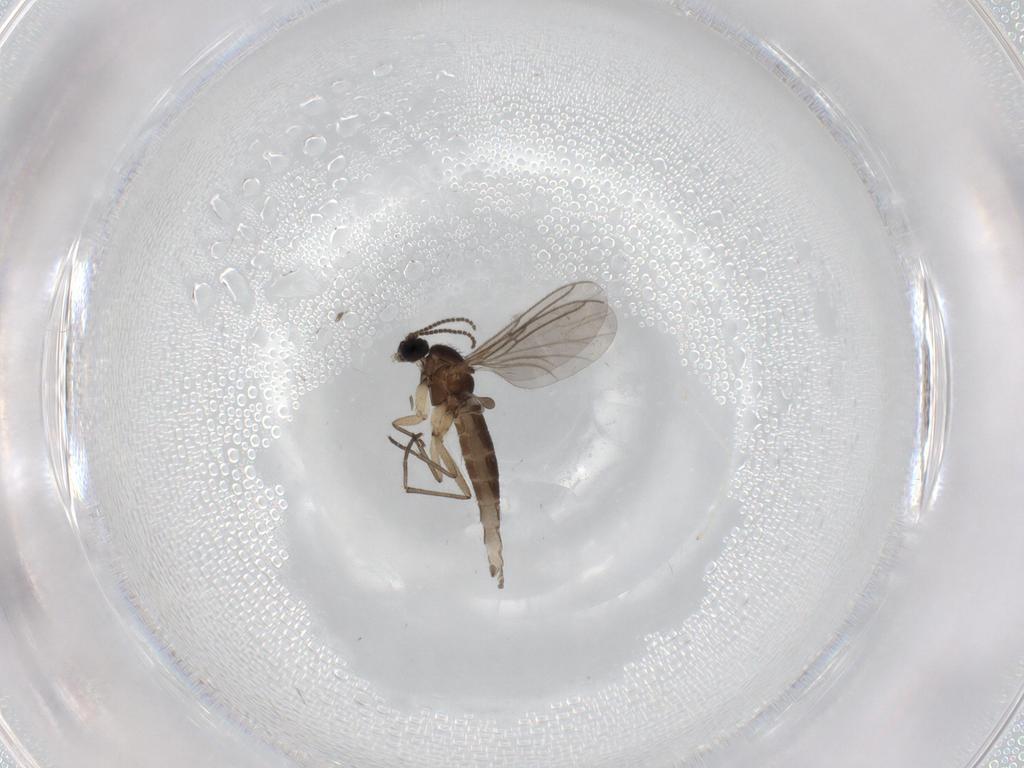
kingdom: Animalia
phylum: Arthropoda
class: Insecta
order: Diptera
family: Sciaridae
